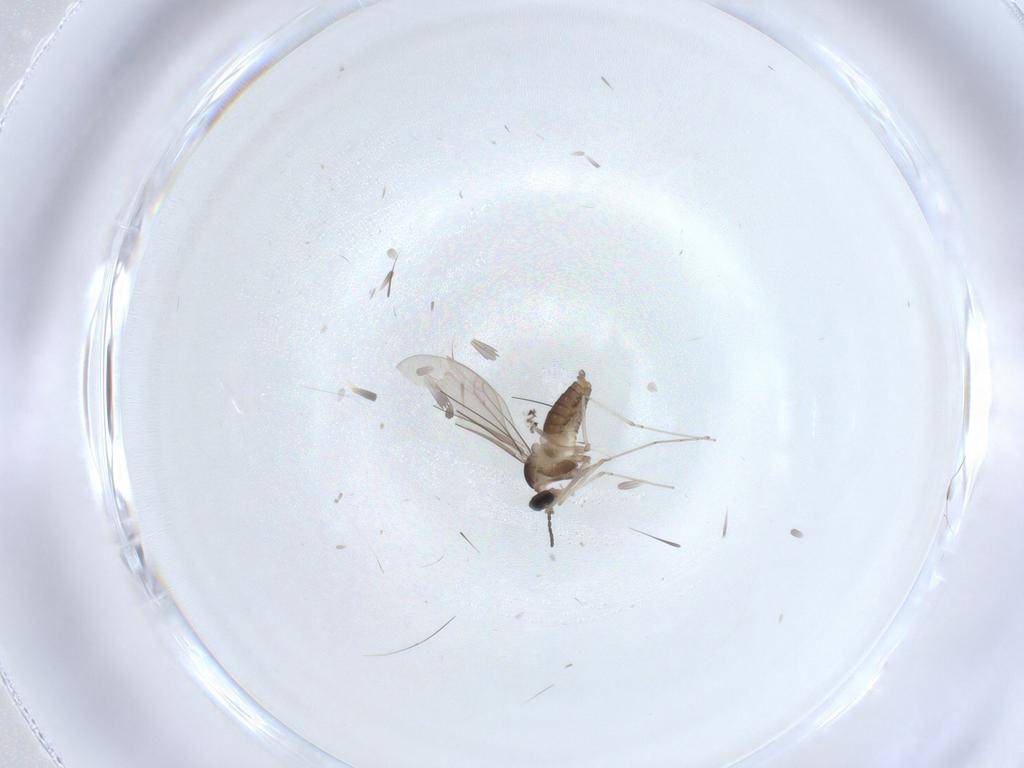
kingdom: Animalia
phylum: Arthropoda
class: Insecta
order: Diptera
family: Cecidomyiidae
